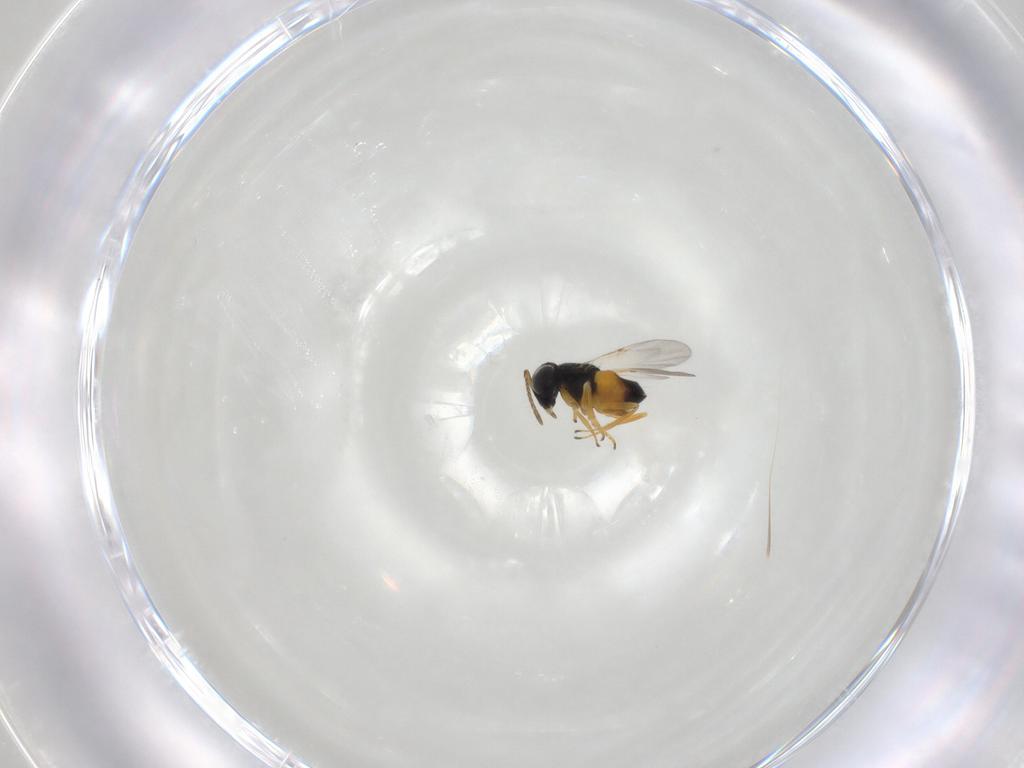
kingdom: Animalia
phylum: Arthropoda
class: Insecta
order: Hymenoptera
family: Encyrtidae
